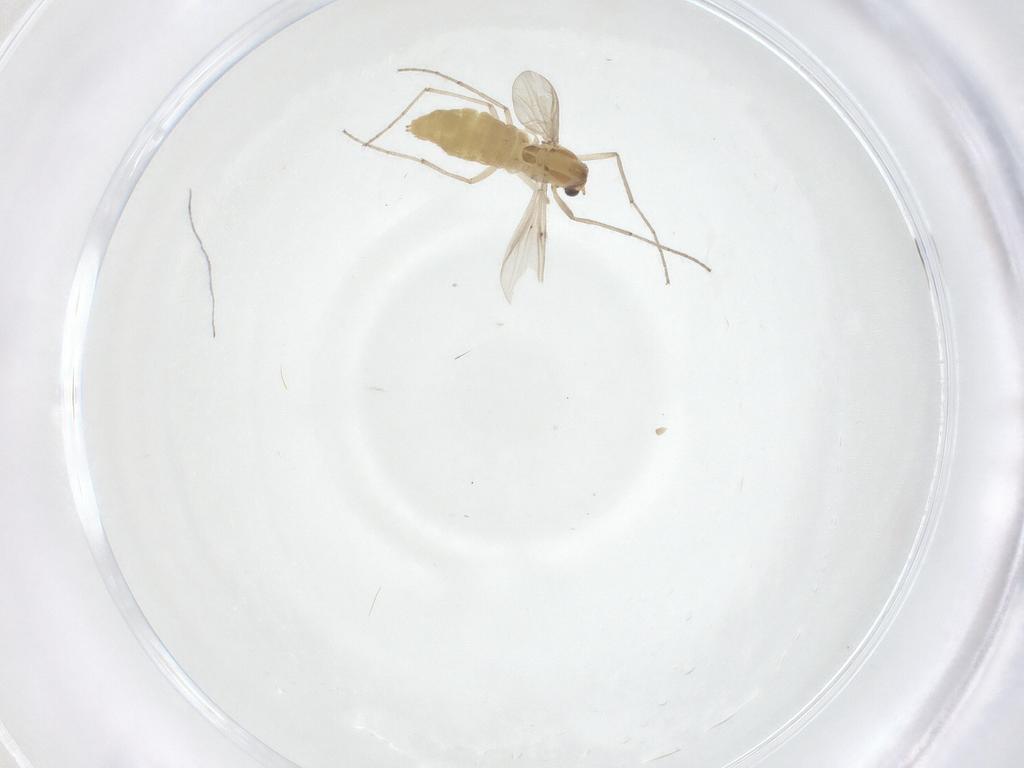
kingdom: Animalia
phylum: Arthropoda
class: Insecta
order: Diptera
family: Chironomidae
